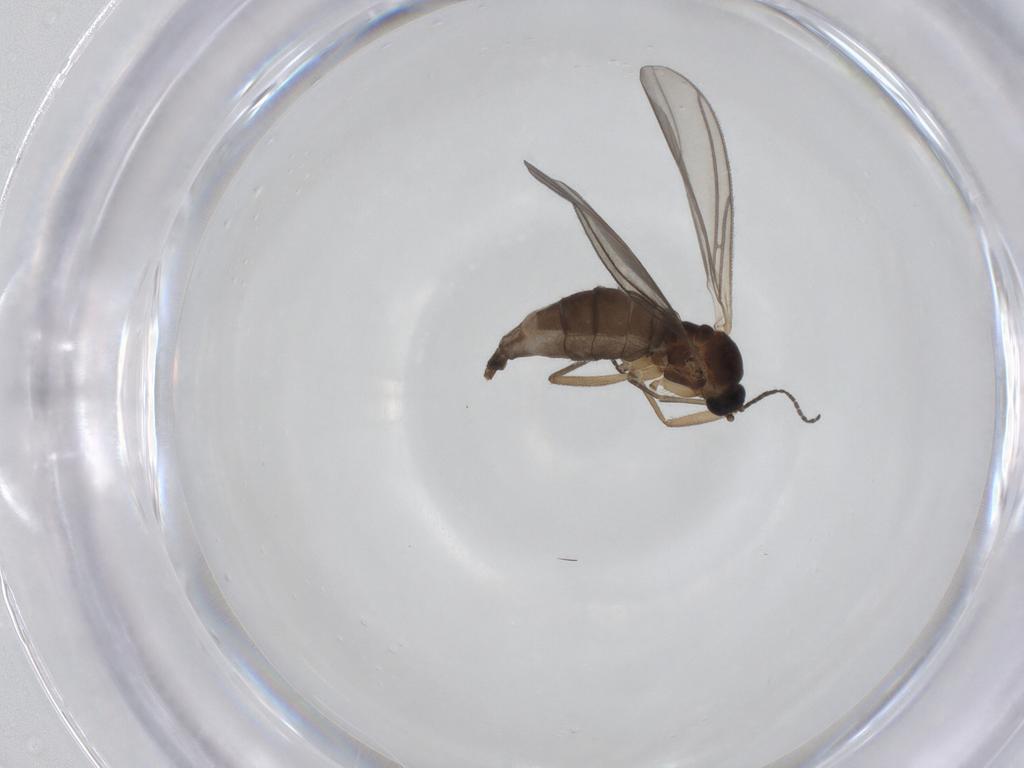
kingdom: Animalia
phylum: Arthropoda
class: Insecta
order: Diptera
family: Sciaridae
